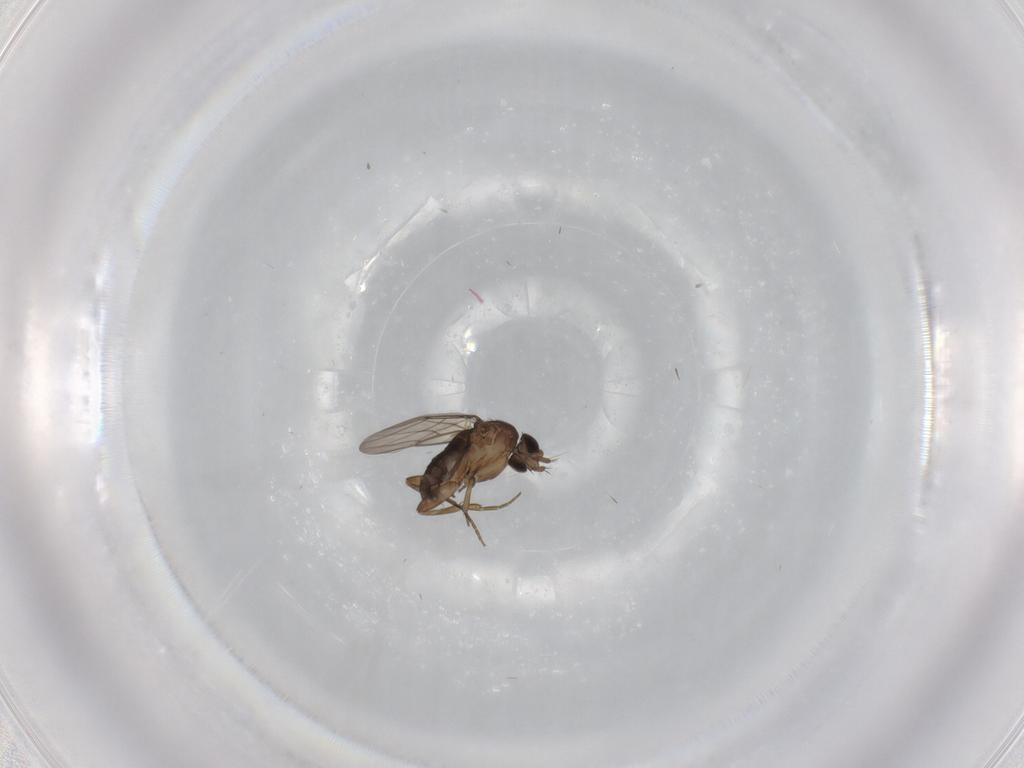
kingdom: Animalia
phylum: Arthropoda
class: Insecta
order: Diptera
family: Phoridae
